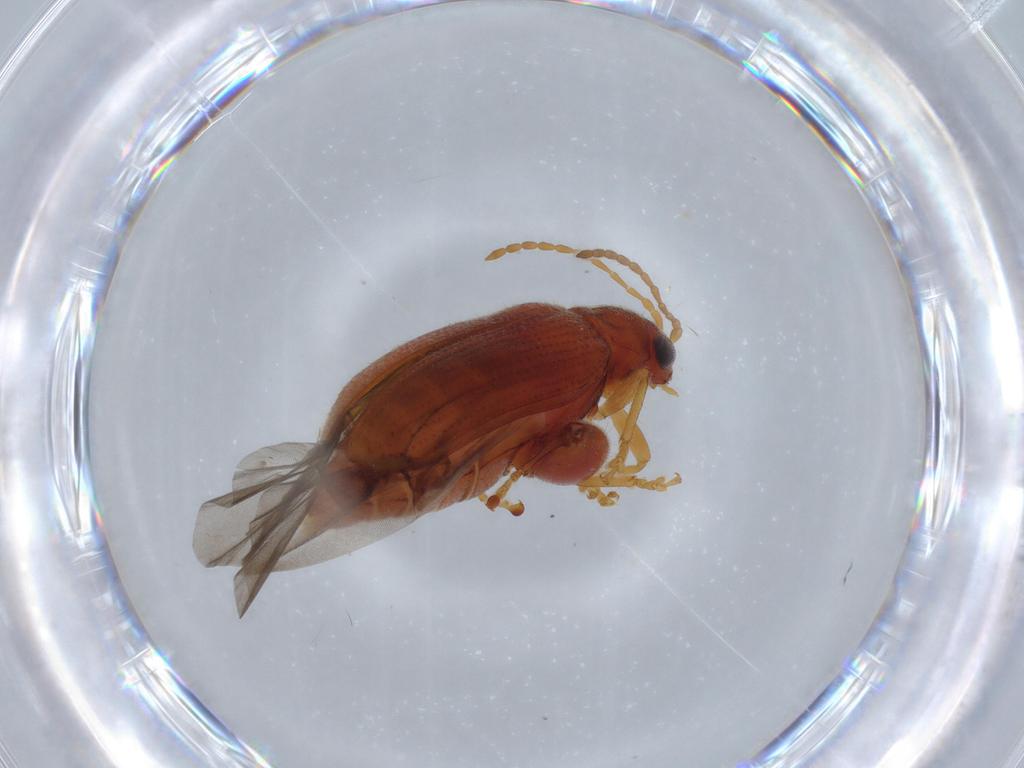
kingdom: Animalia
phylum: Arthropoda
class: Insecta
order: Coleoptera
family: Chrysomelidae
